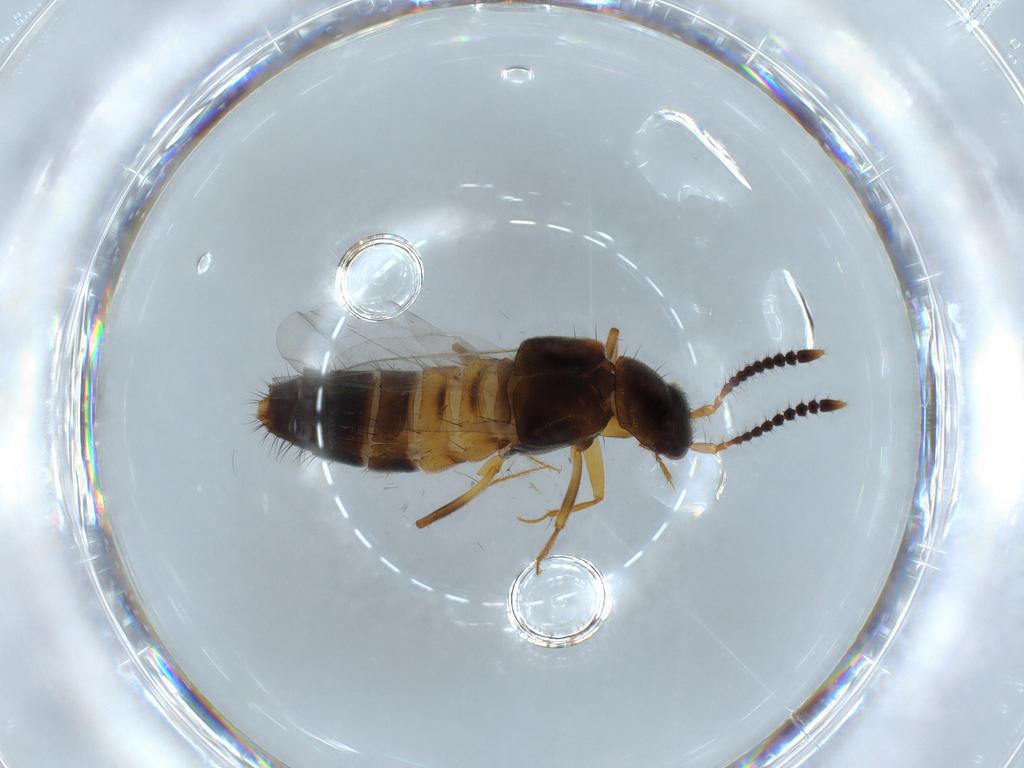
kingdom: Animalia
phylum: Arthropoda
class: Insecta
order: Coleoptera
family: Staphylinidae
